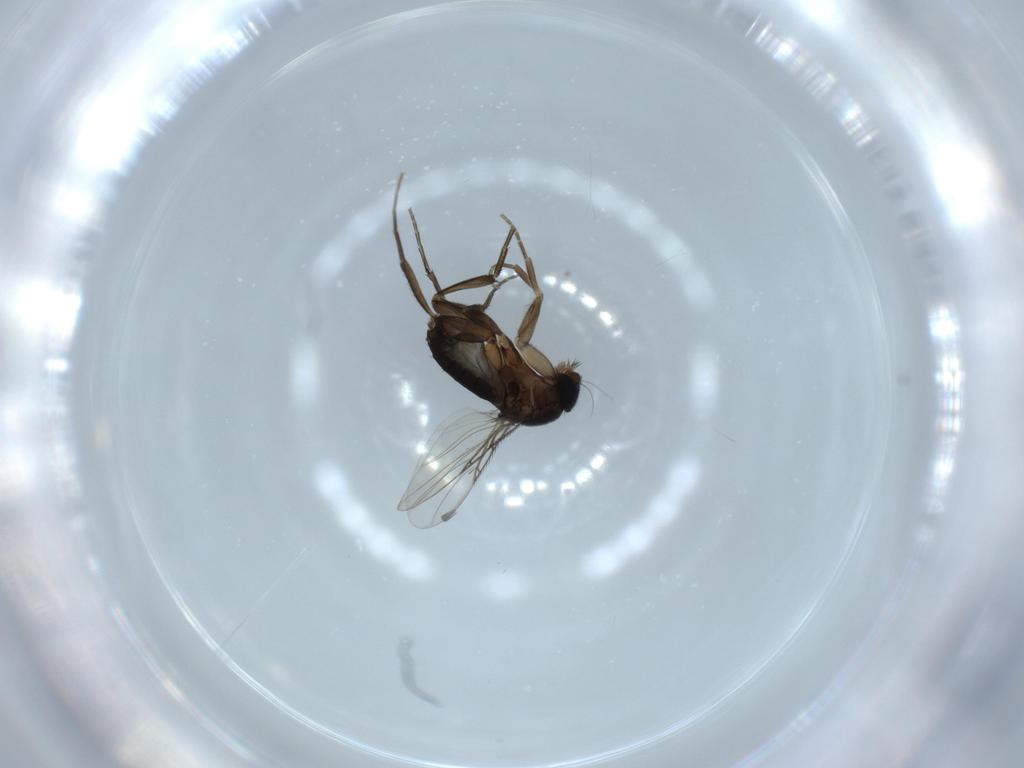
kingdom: Animalia
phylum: Arthropoda
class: Insecta
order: Diptera
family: Phoridae
